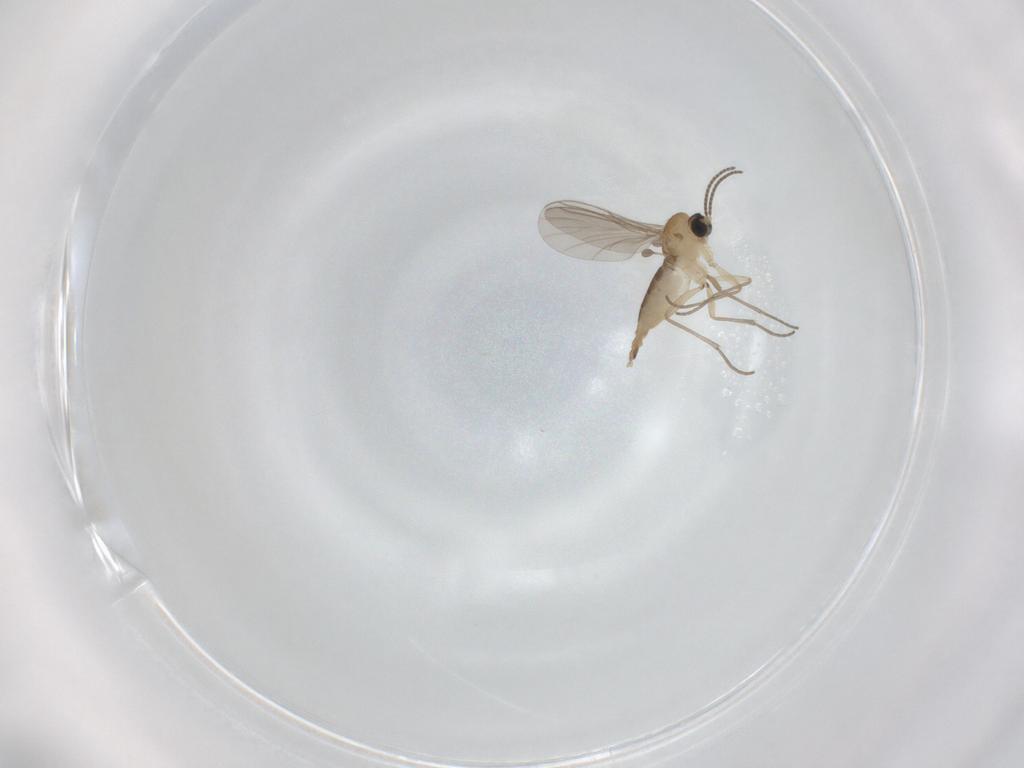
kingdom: Animalia
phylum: Arthropoda
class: Insecta
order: Diptera
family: Sciaridae
